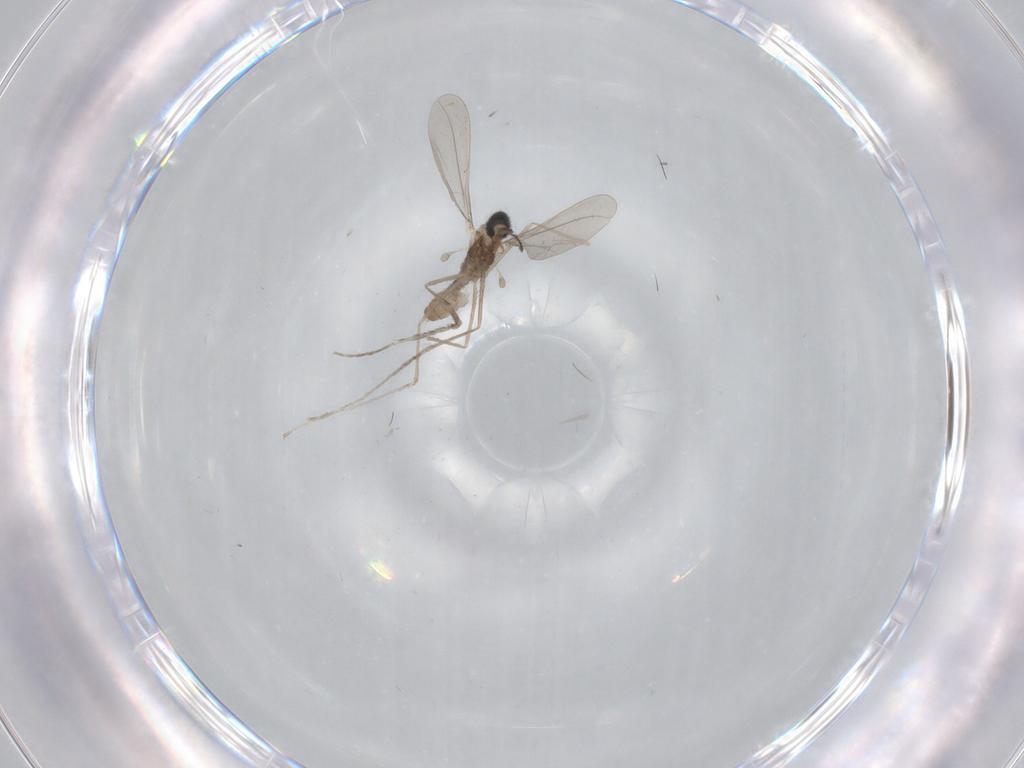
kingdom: Animalia
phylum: Arthropoda
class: Insecta
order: Diptera
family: Cecidomyiidae
